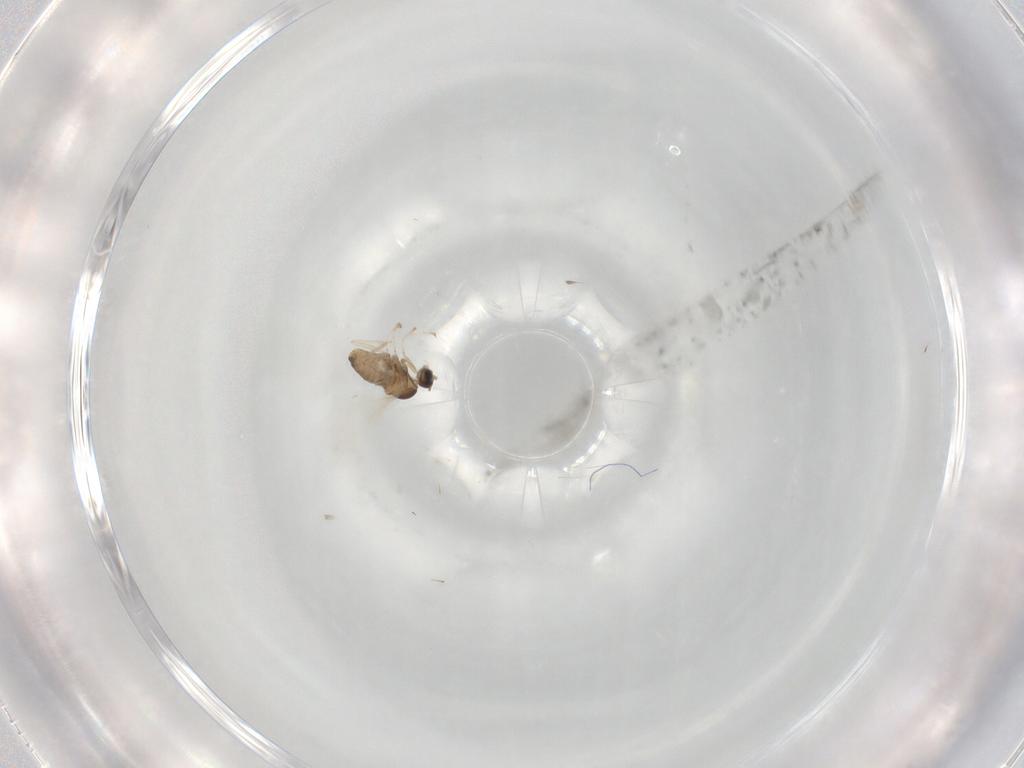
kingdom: Animalia
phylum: Arthropoda
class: Insecta
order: Diptera
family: Cecidomyiidae
